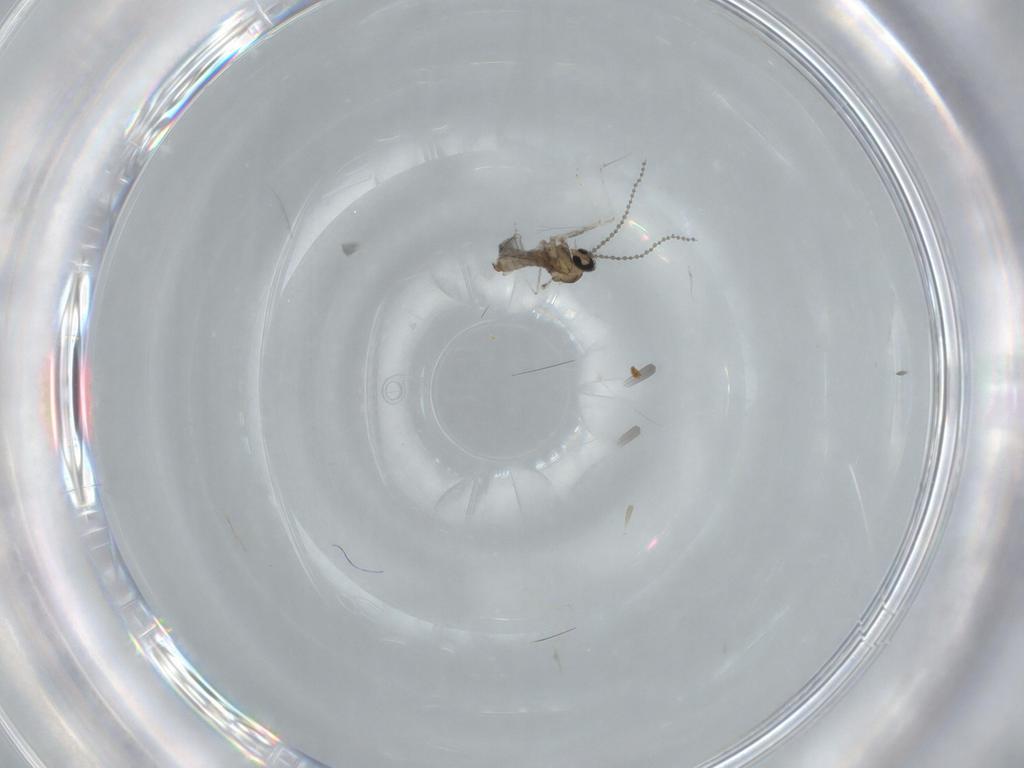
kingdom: Animalia
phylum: Arthropoda
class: Insecta
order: Diptera
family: Cecidomyiidae
